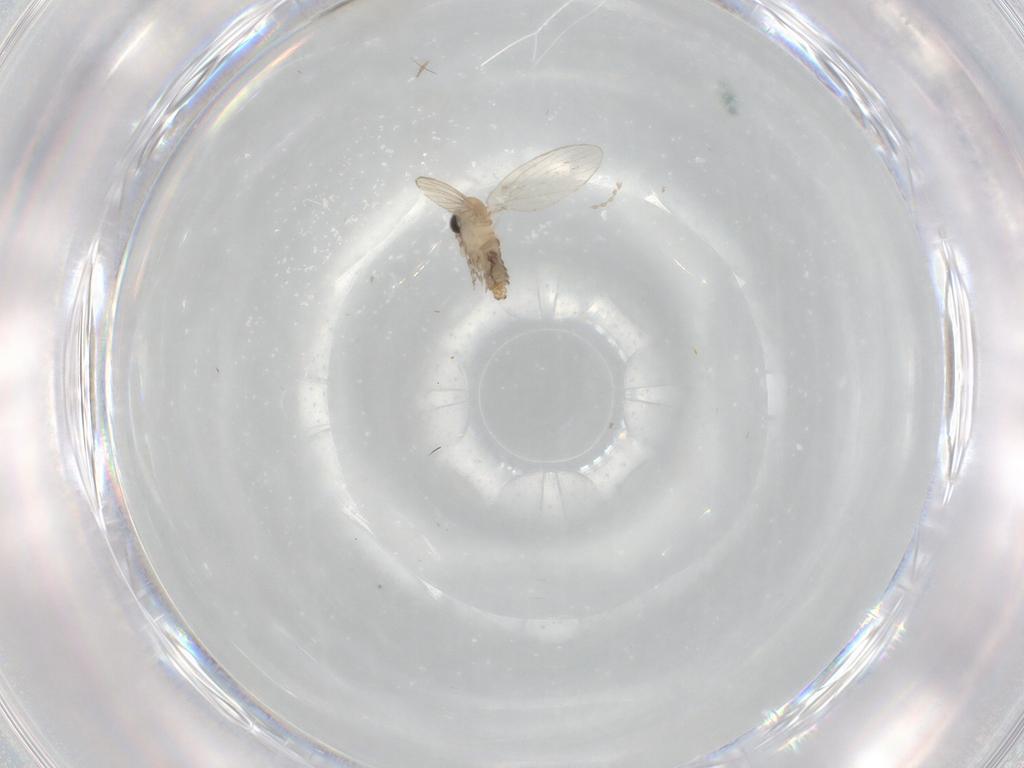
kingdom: Animalia
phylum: Arthropoda
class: Insecta
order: Diptera
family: Psychodidae
